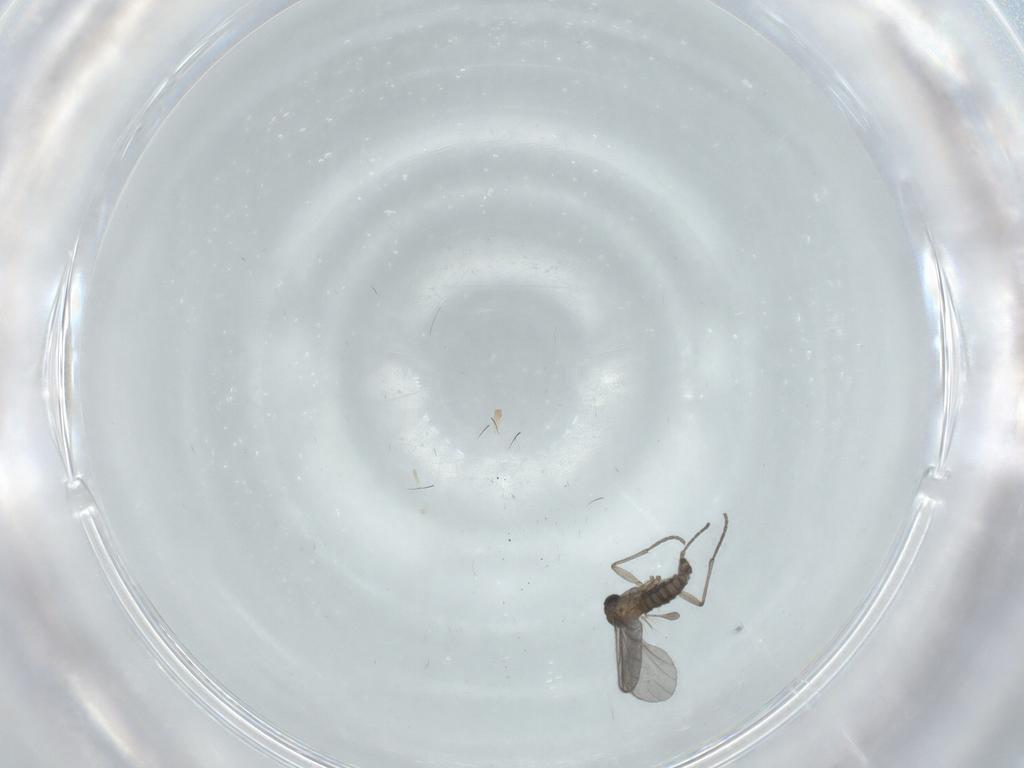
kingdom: Animalia
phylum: Arthropoda
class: Insecta
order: Diptera
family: Sciaridae
